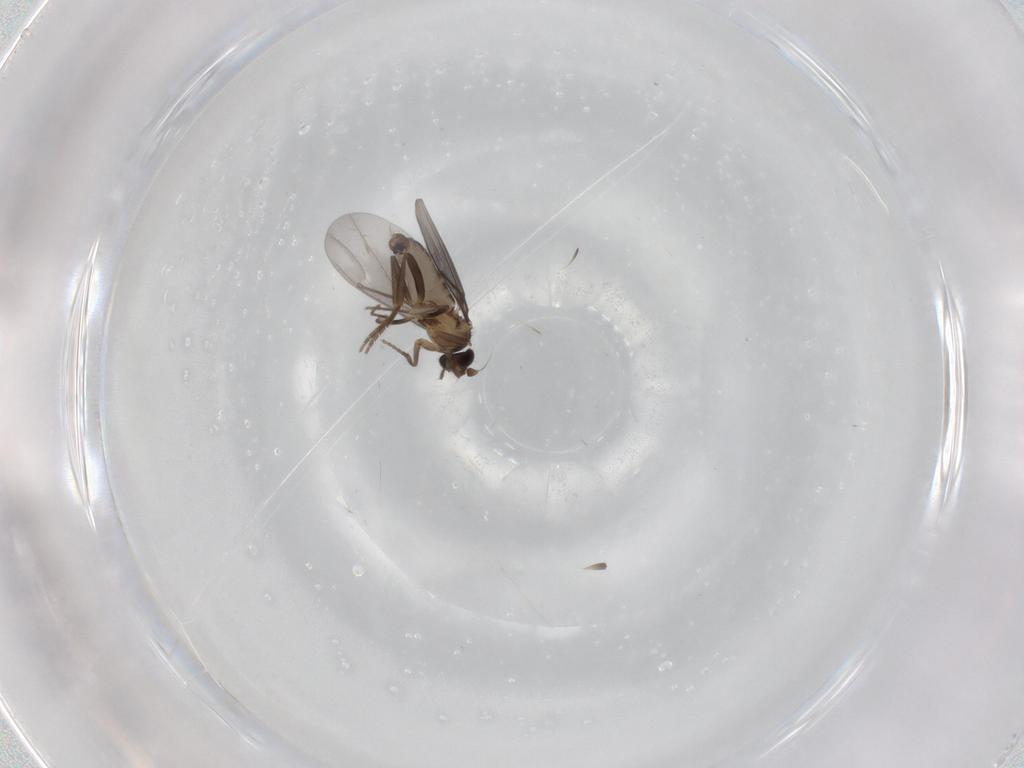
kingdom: Animalia
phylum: Arthropoda
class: Insecta
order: Diptera
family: Phoridae
